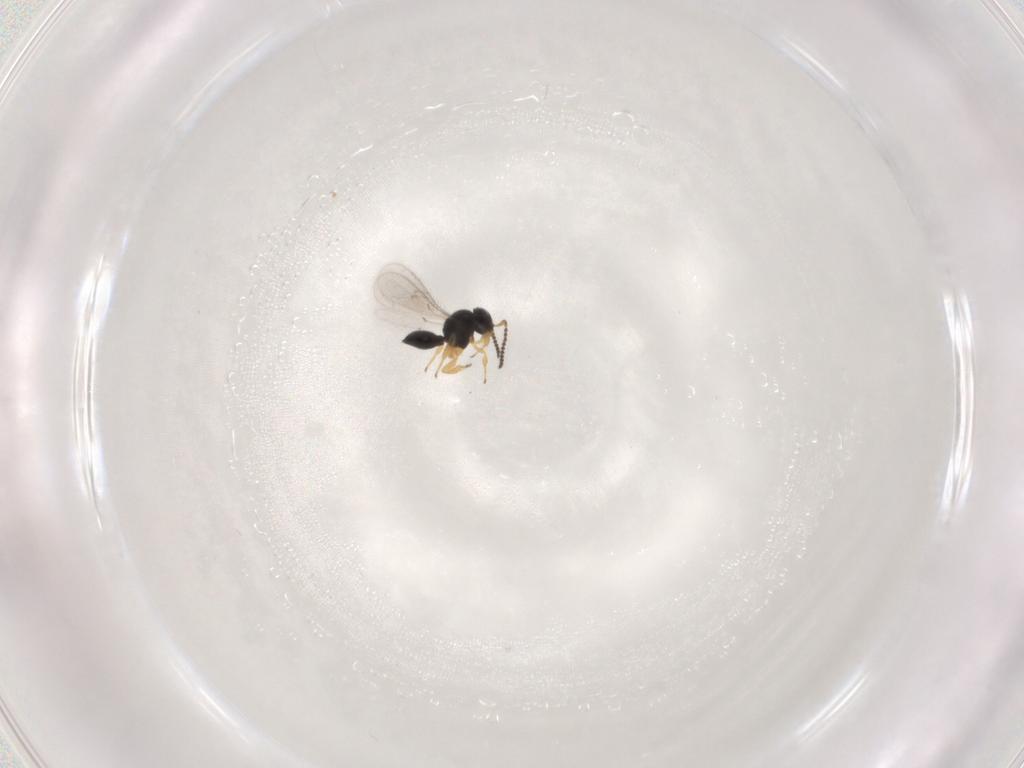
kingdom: Animalia
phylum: Arthropoda
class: Insecta
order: Hymenoptera
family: Scelionidae
